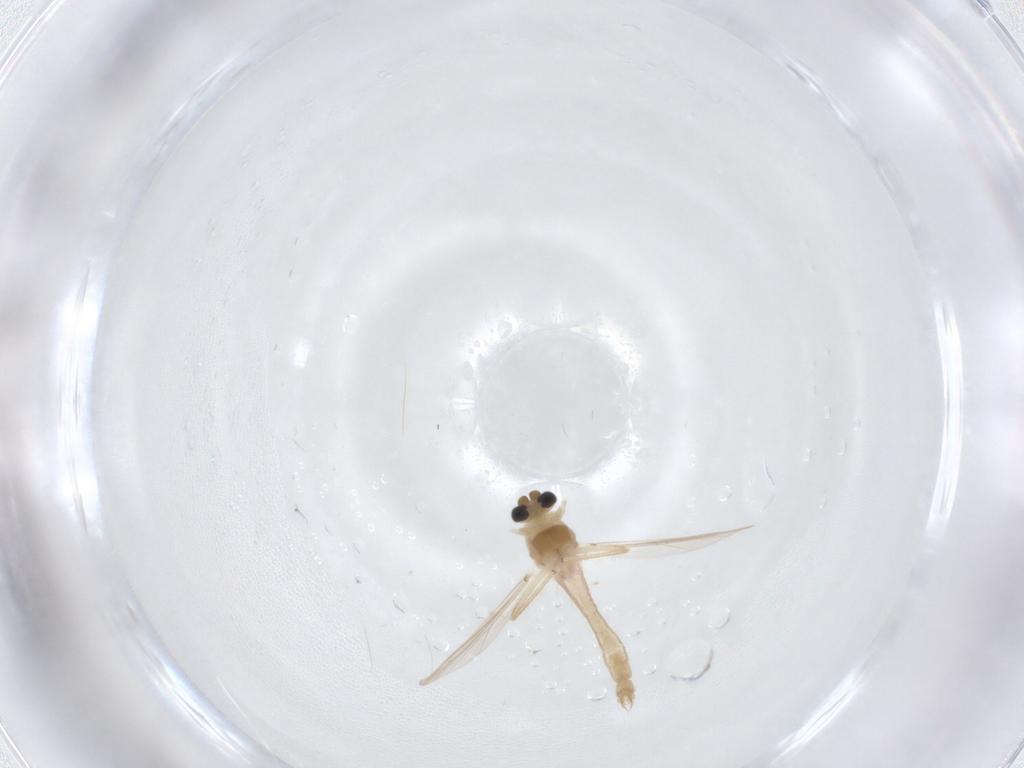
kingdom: Animalia
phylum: Arthropoda
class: Insecta
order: Diptera
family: Chironomidae
